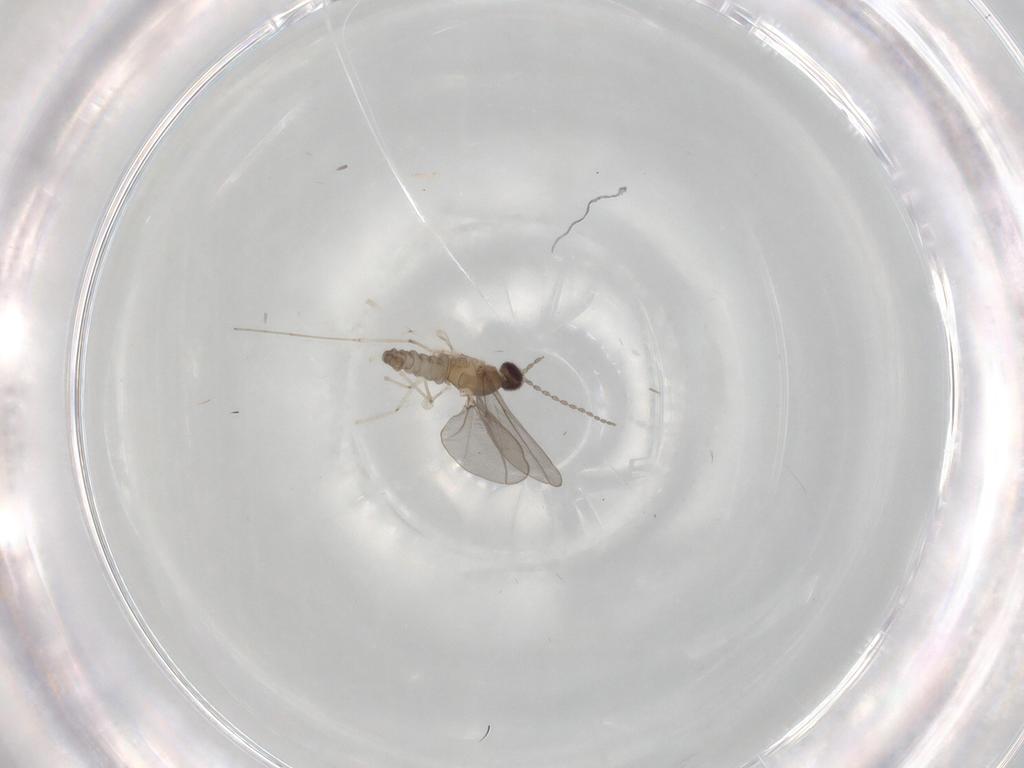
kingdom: Animalia
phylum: Arthropoda
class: Insecta
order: Diptera
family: Cecidomyiidae
